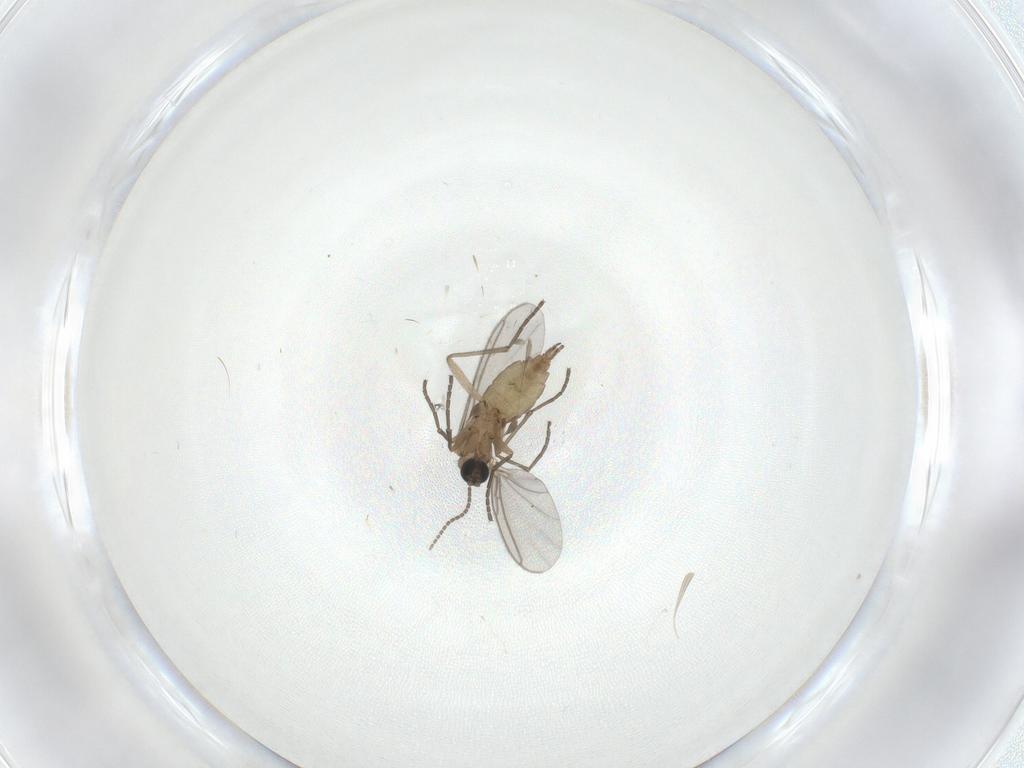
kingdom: Animalia
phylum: Arthropoda
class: Insecta
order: Diptera
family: Sciaridae
